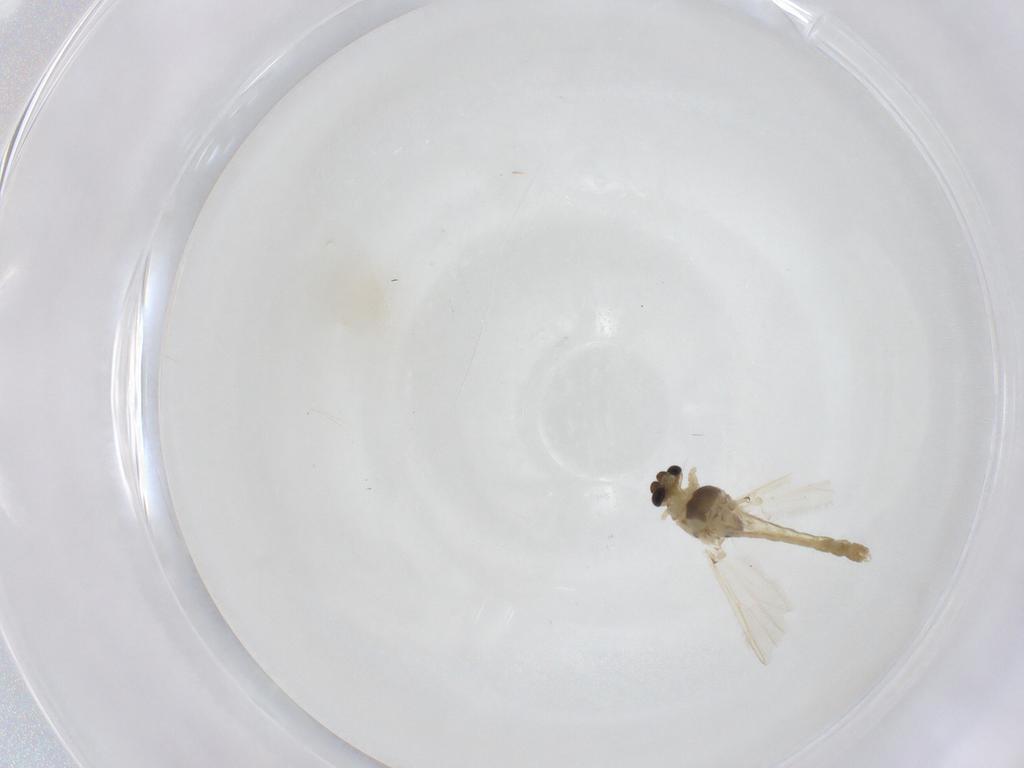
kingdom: Animalia
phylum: Arthropoda
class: Insecta
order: Diptera
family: Chironomidae
